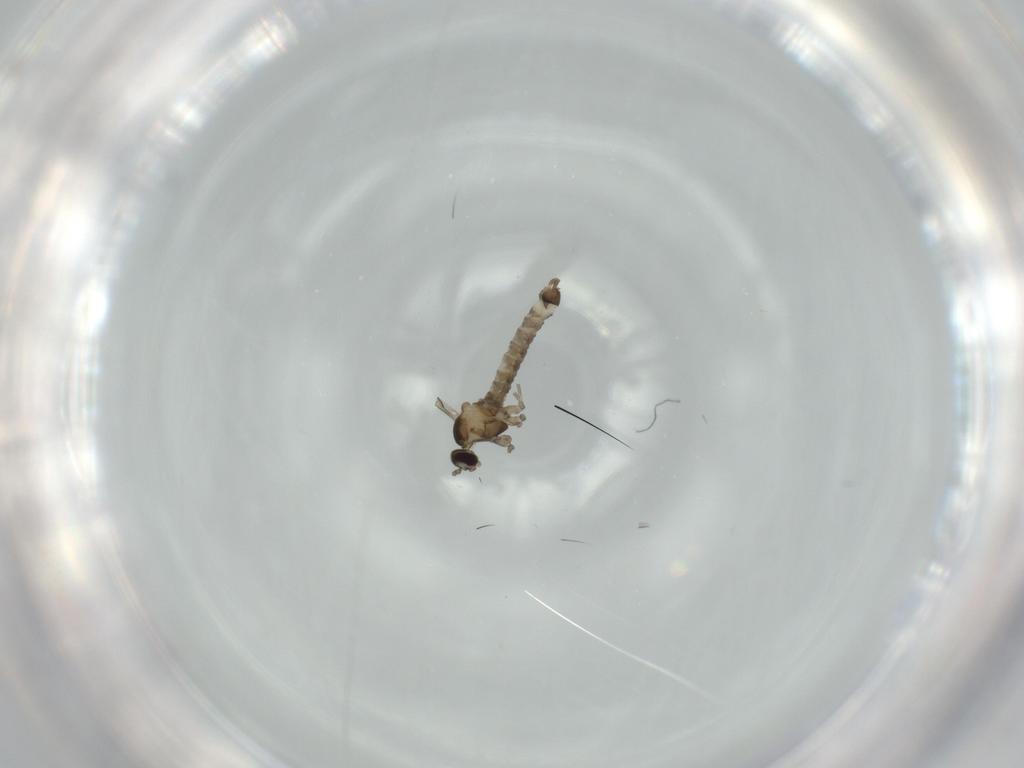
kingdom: Animalia
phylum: Arthropoda
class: Insecta
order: Diptera
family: Cecidomyiidae
